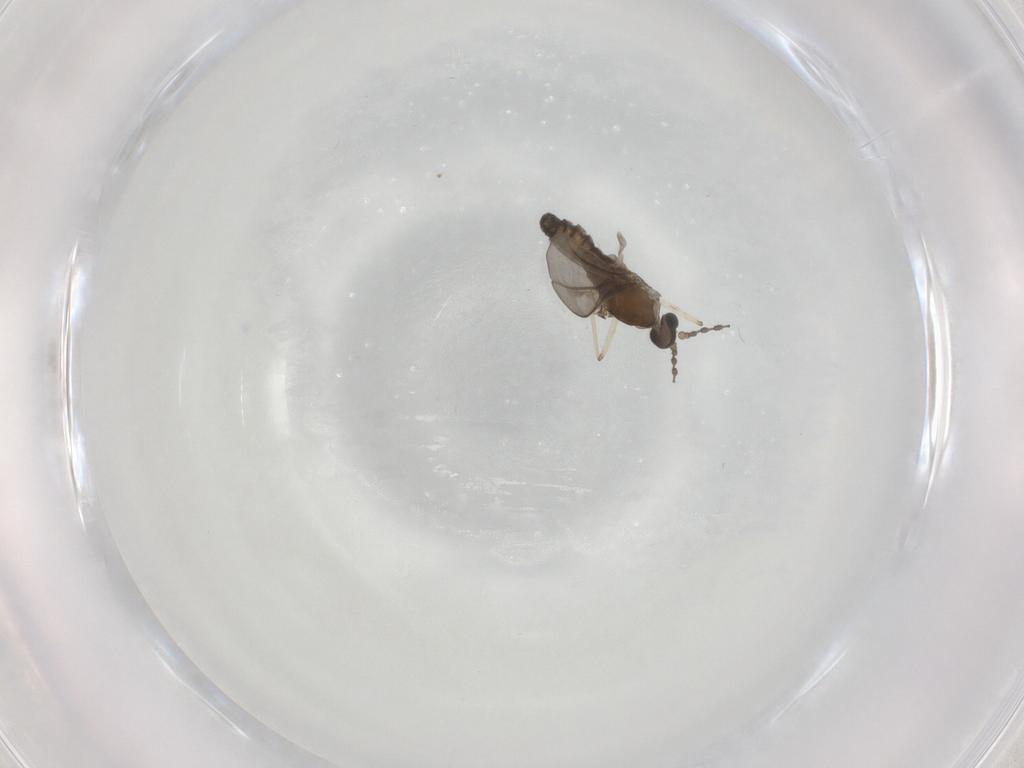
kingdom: Animalia
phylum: Arthropoda
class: Insecta
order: Diptera
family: Cecidomyiidae
